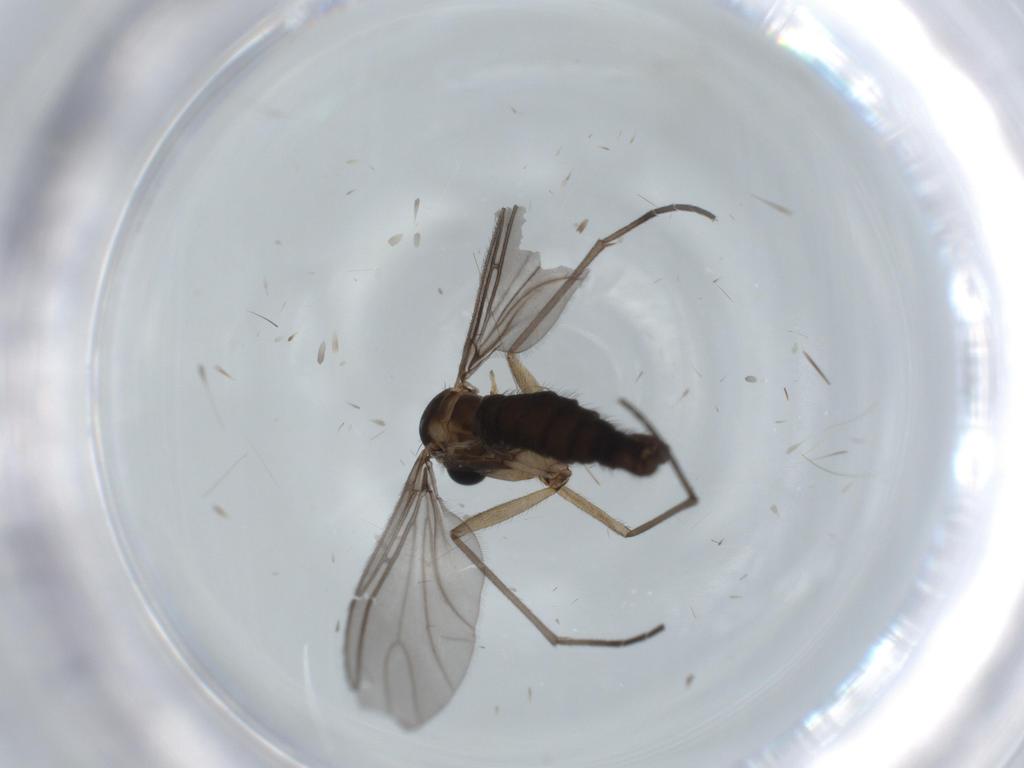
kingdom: Animalia
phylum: Arthropoda
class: Insecta
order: Diptera
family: Sciaridae
